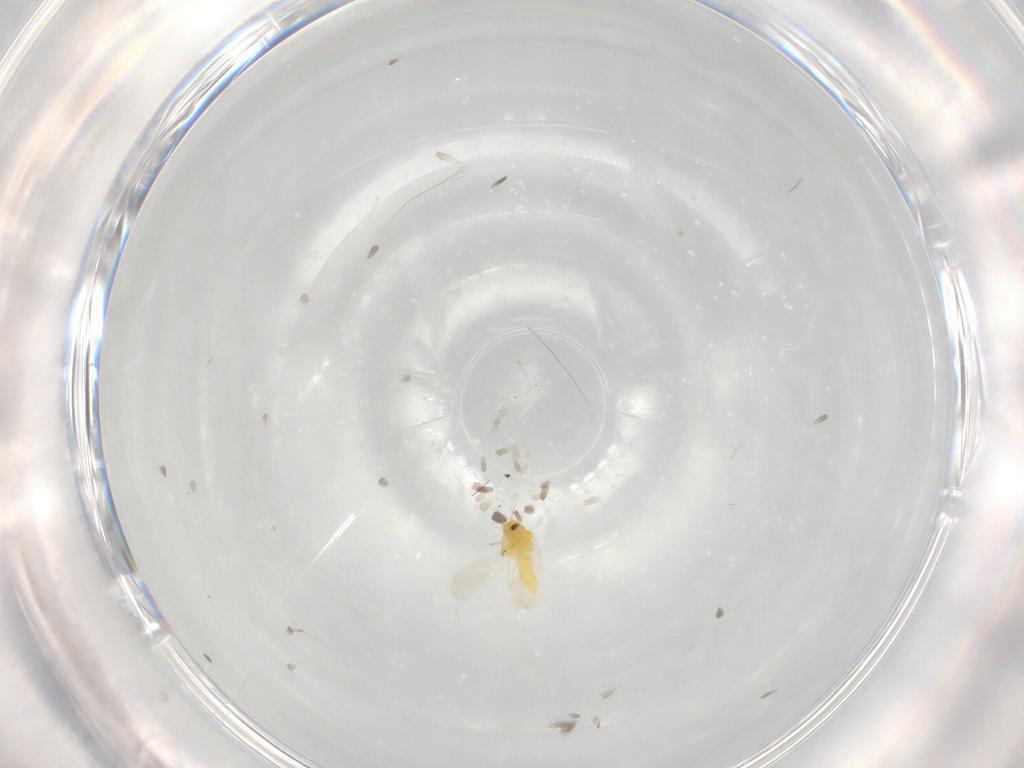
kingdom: Animalia
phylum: Arthropoda
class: Insecta
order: Hemiptera
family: Aleyrodidae
